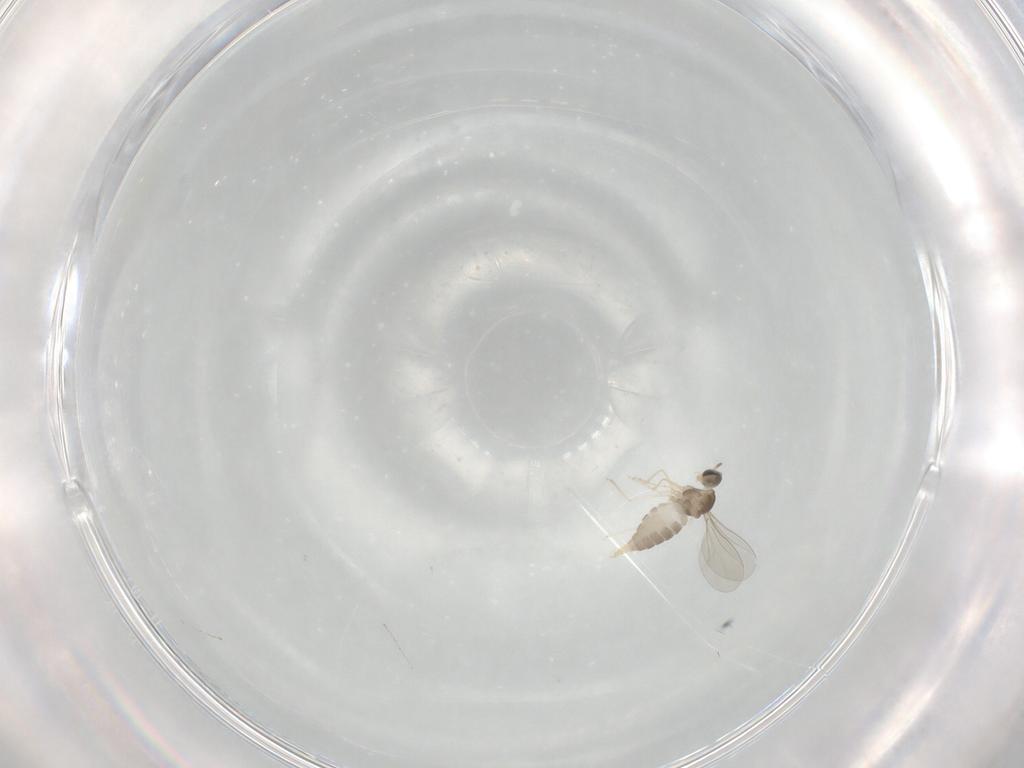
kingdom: Animalia
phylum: Arthropoda
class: Insecta
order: Diptera
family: Cecidomyiidae
